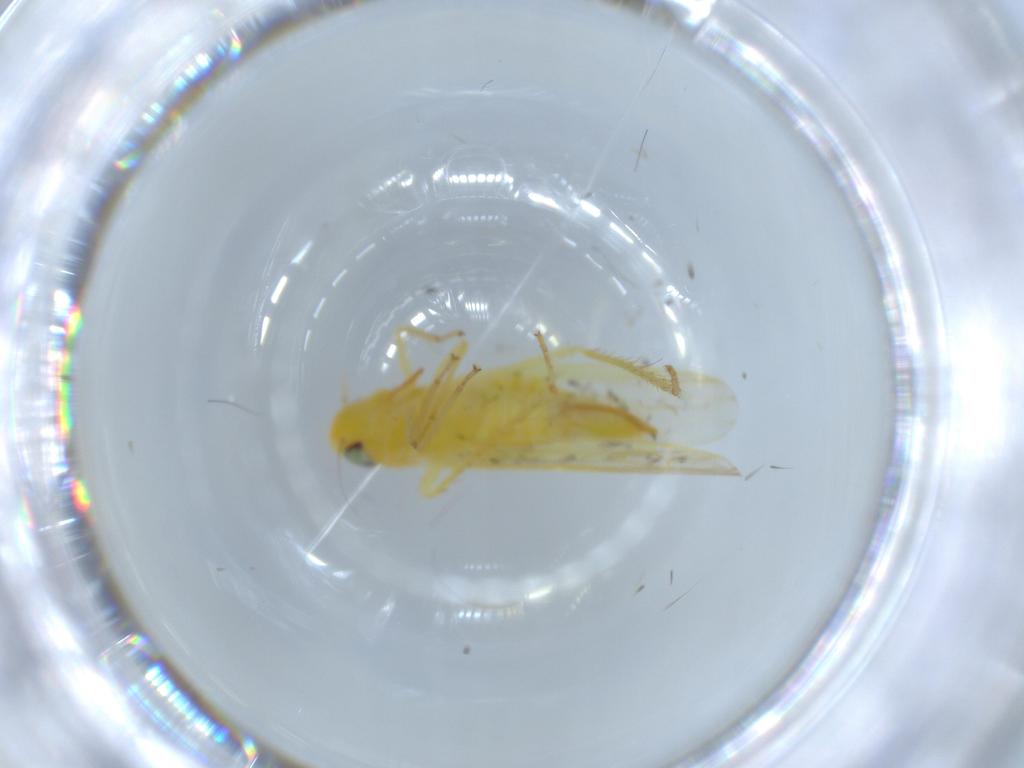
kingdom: Animalia
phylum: Arthropoda
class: Insecta
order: Hemiptera
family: Cicadellidae
